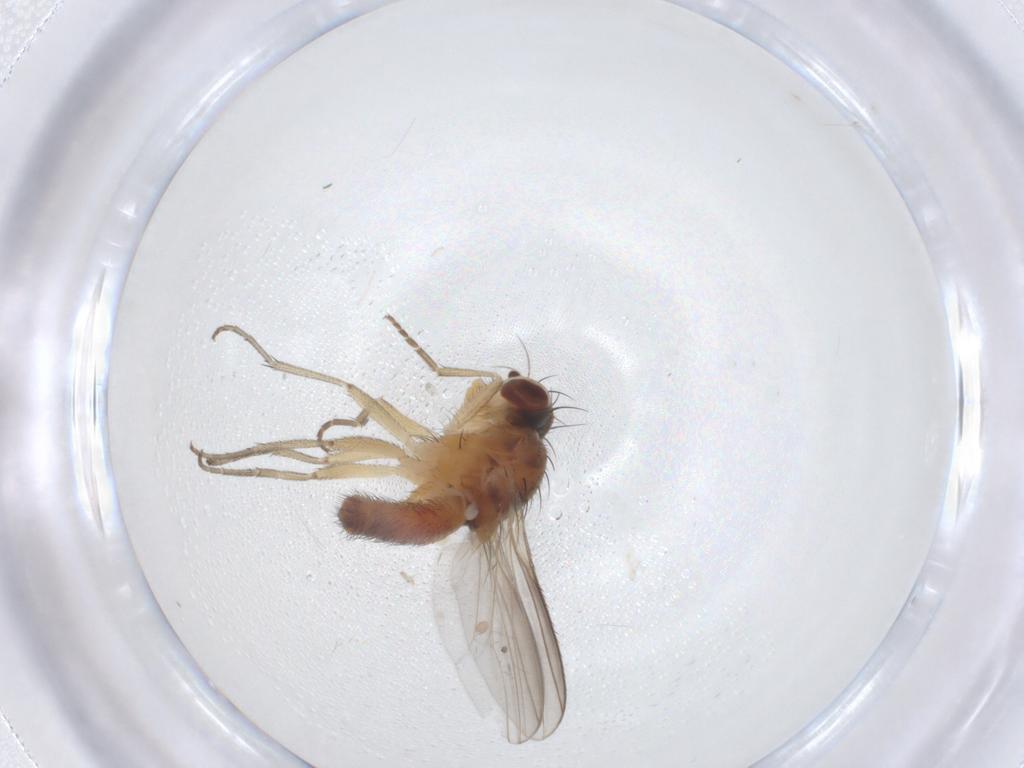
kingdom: Animalia
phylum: Arthropoda
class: Insecta
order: Diptera
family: Heleomyzidae
